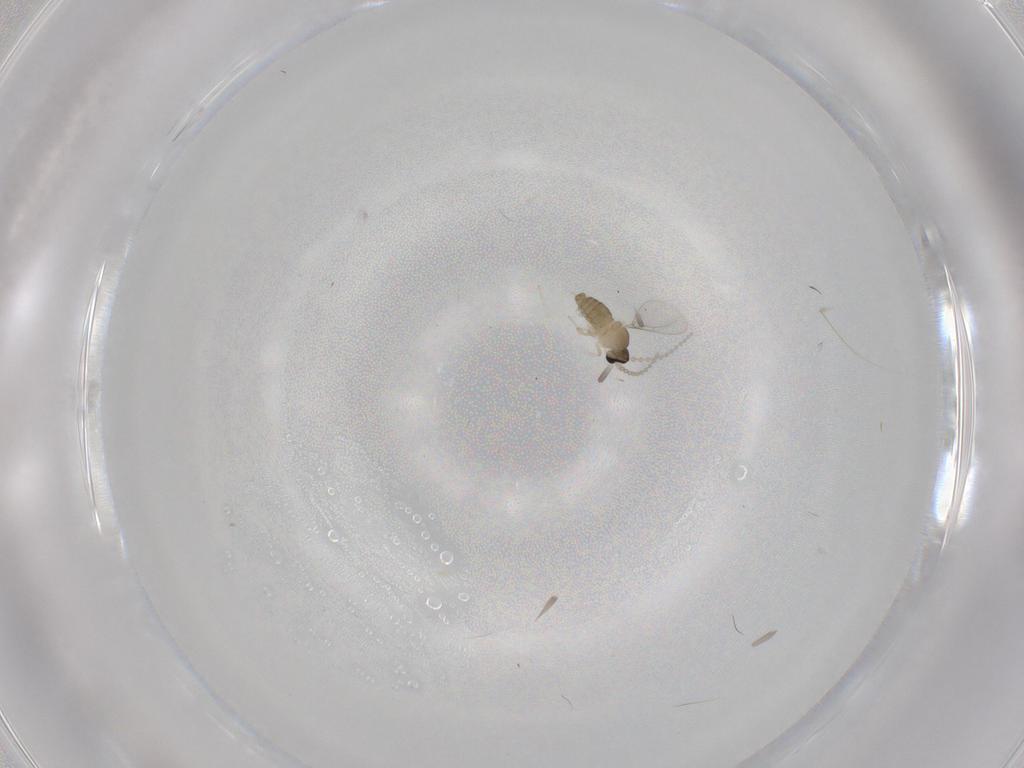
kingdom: Animalia
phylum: Arthropoda
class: Insecta
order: Diptera
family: Cecidomyiidae
